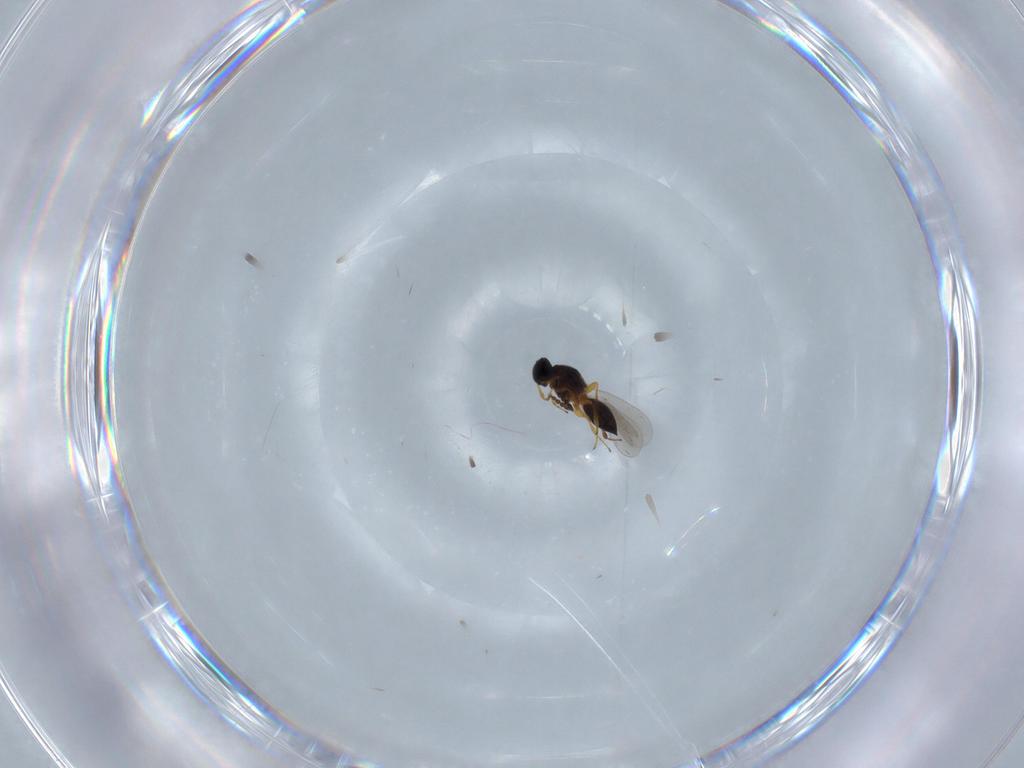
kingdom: Animalia
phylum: Arthropoda
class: Insecta
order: Hymenoptera
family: Platygastridae
